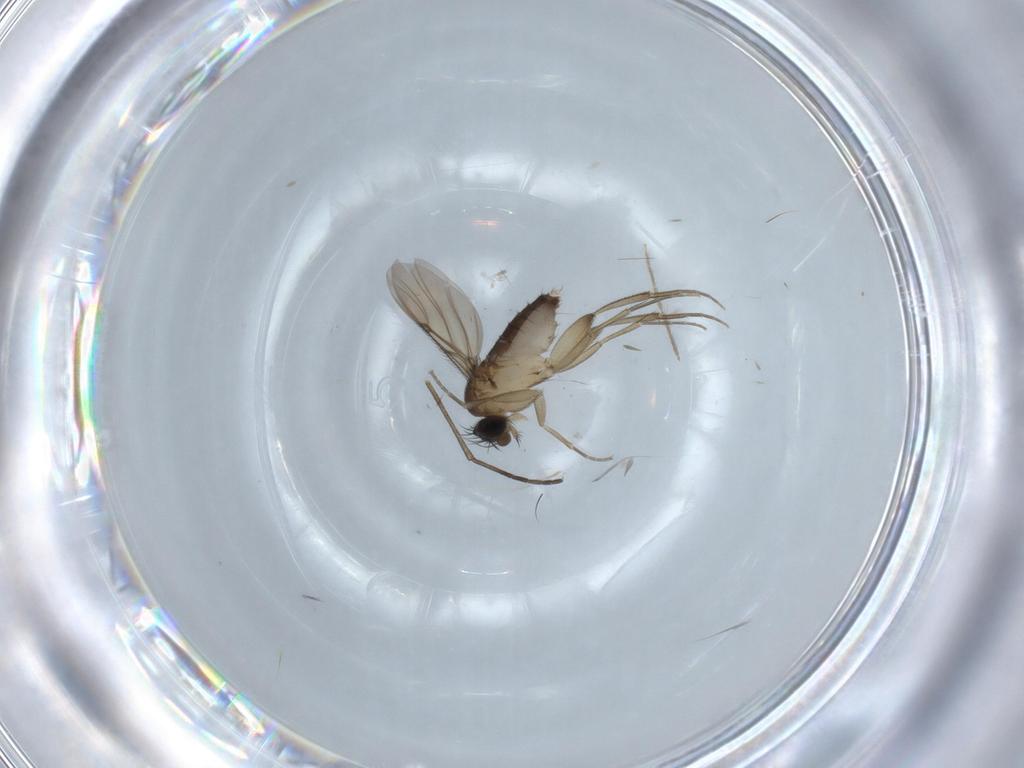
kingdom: Animalia
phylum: Arthropoda
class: Insecta
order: Diptera
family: Phoridae
